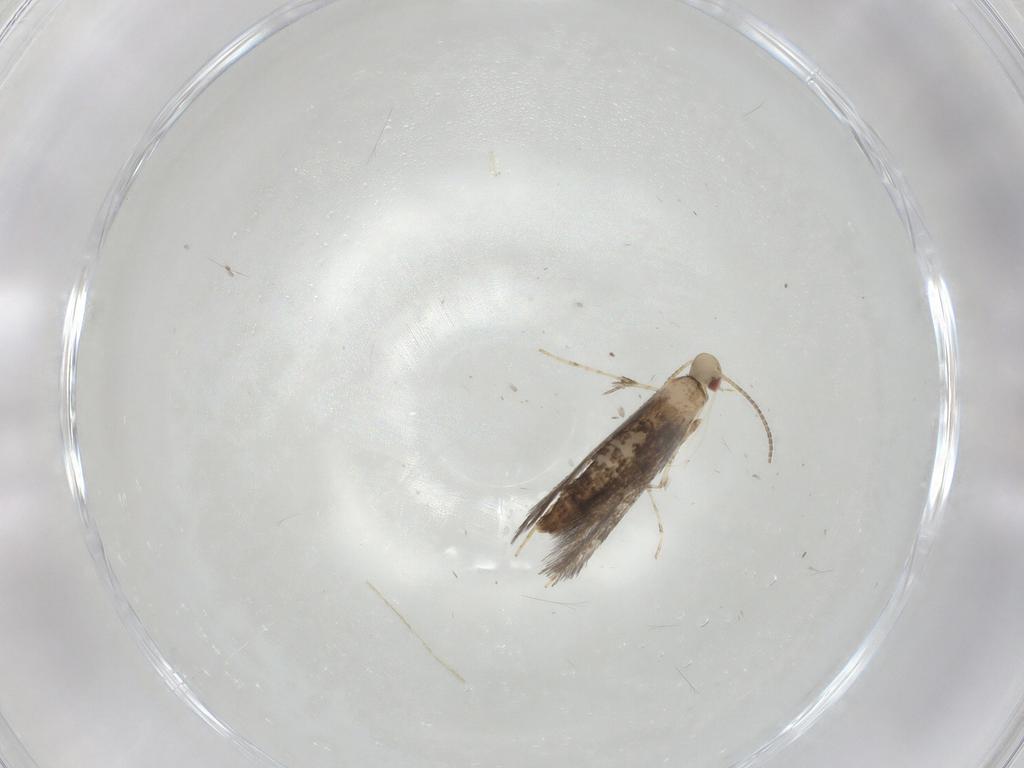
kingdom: Animalia
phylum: Arthropoda
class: Insecta
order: Lepidoptera
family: Gracillariidae
